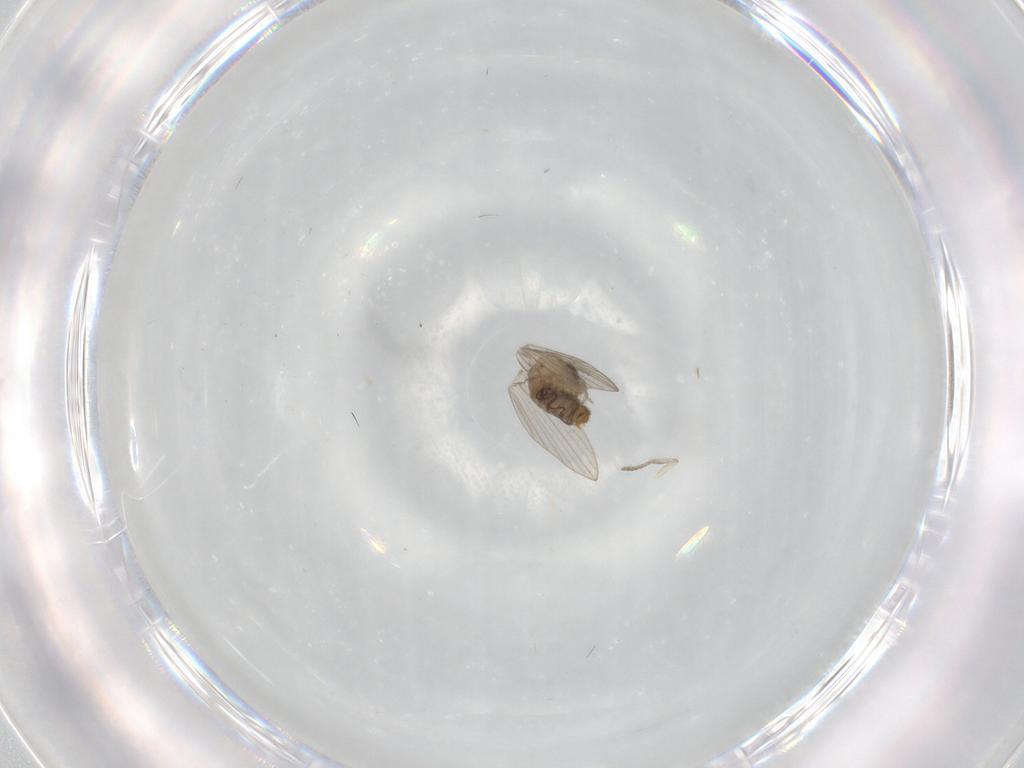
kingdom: Animalia
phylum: Arthropoda
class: Insecta
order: Diptera
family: Psychodidae
